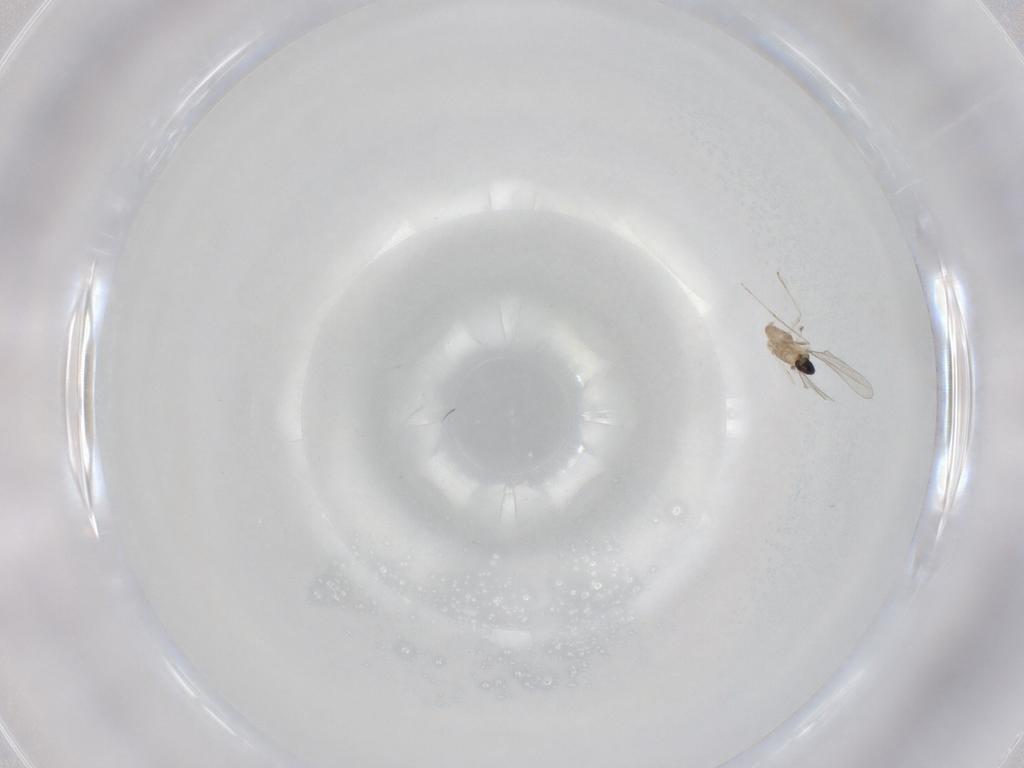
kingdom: Animalia
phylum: Arthropoda
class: Insecta
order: Diptera
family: Cecidomyiidae
